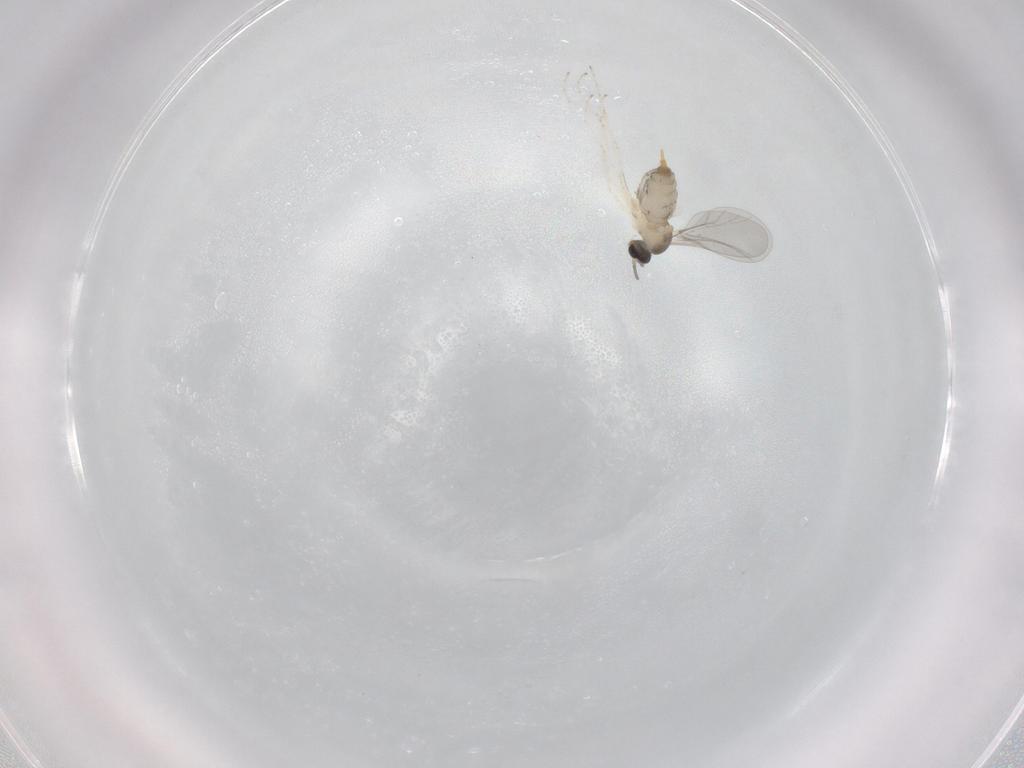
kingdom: Animalia
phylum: Arthropoda
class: Insecta
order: Diptera
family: Cecidomyiidae
